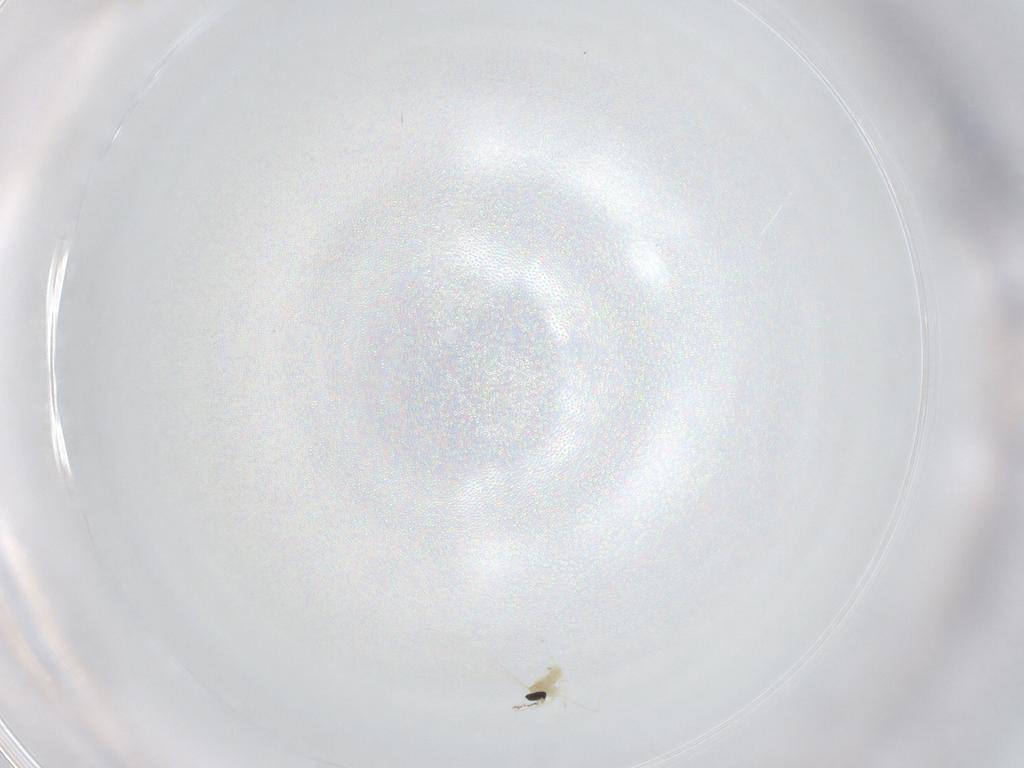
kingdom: Animalia
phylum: Arthropoda
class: Insecta
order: Diptera
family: Cecidomyiidae
